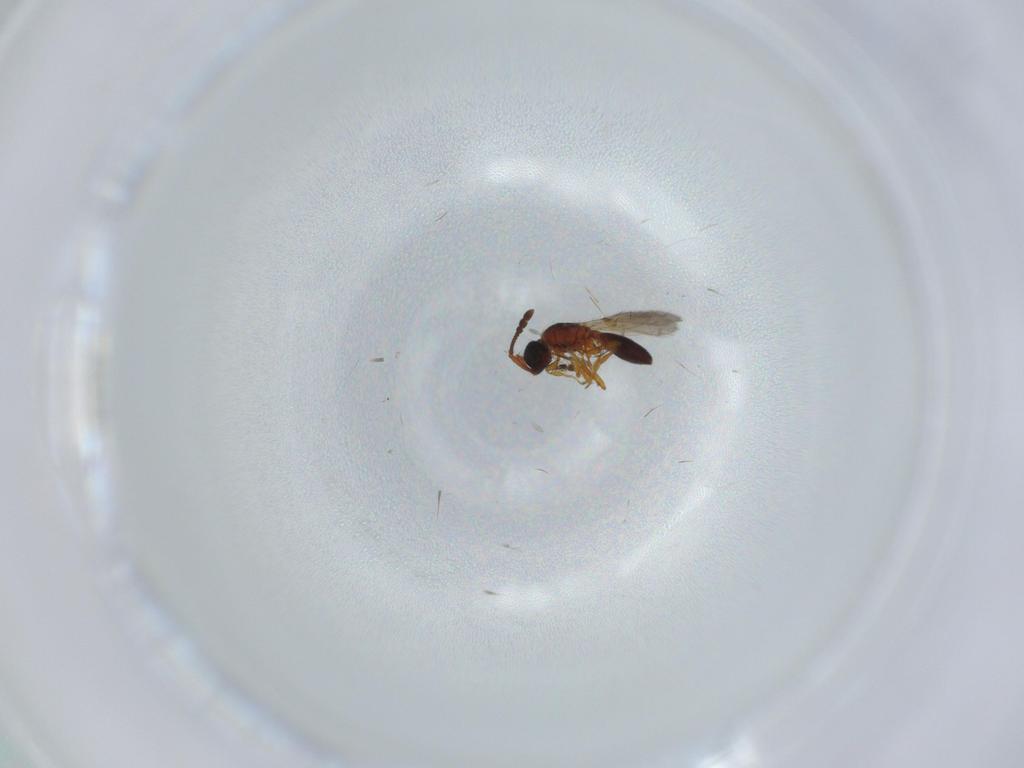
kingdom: Animalia
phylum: Arthropoda
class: Insecta
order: Hymenoptera
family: Diapriidae
